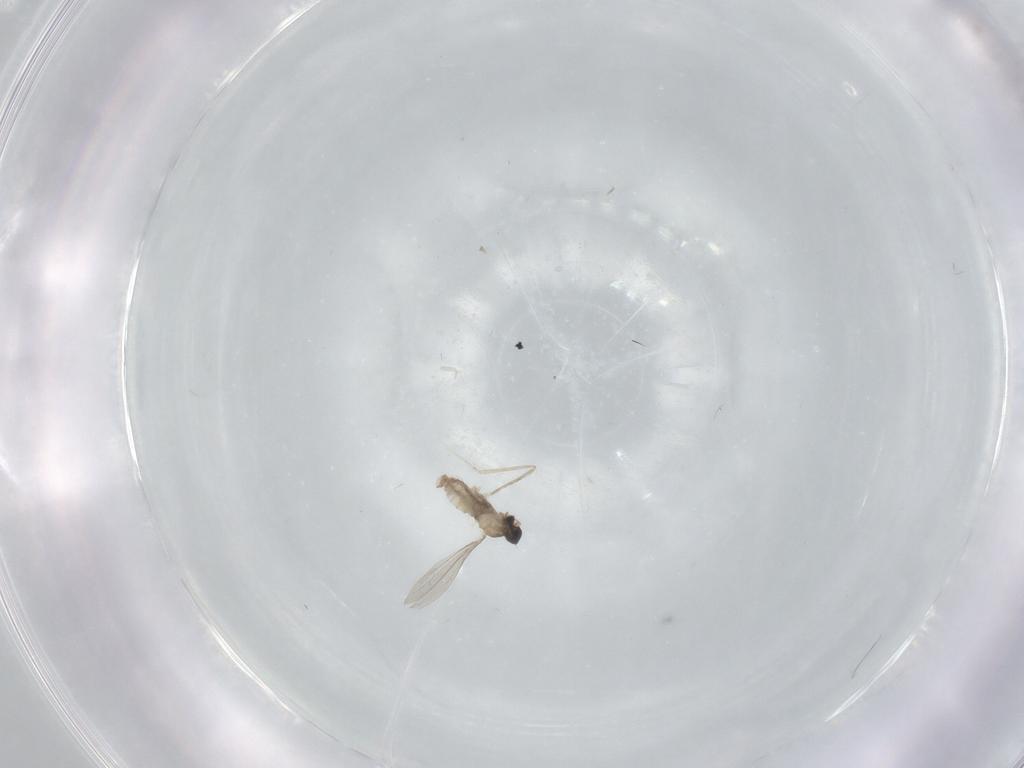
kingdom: Animalia
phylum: Arthropoda
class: Insecta
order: Diptera
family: Cecidomyiidae
